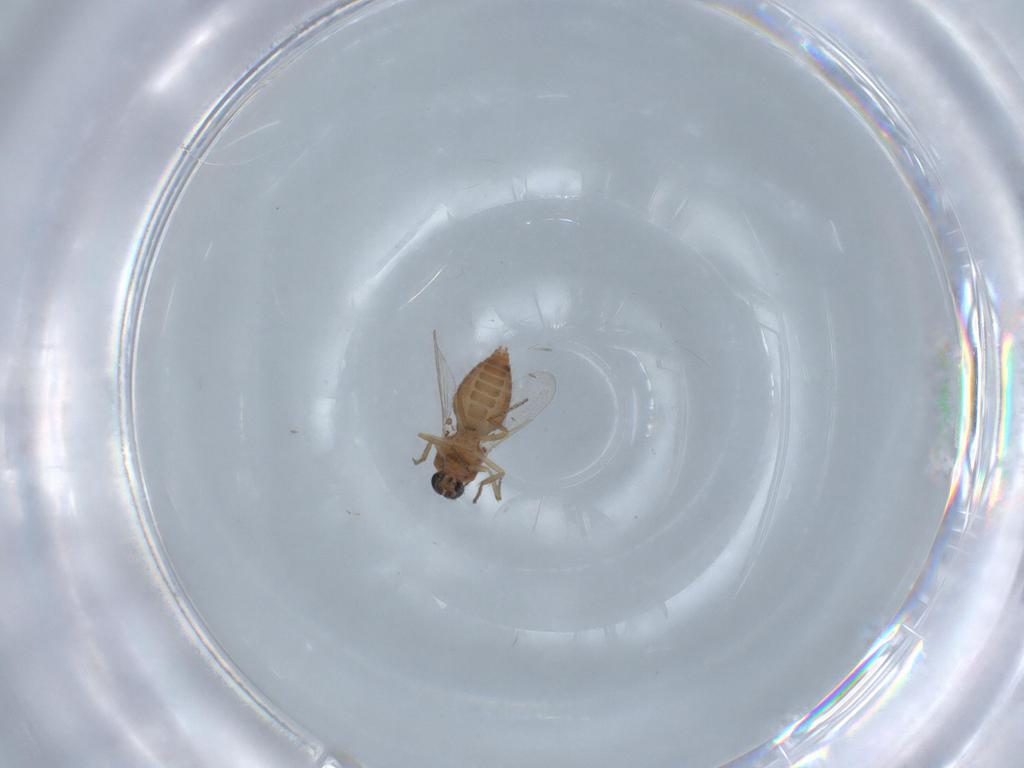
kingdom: Animalia
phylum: Arthropoda
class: Insecta
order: Diptera
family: Ceratopogonidae
